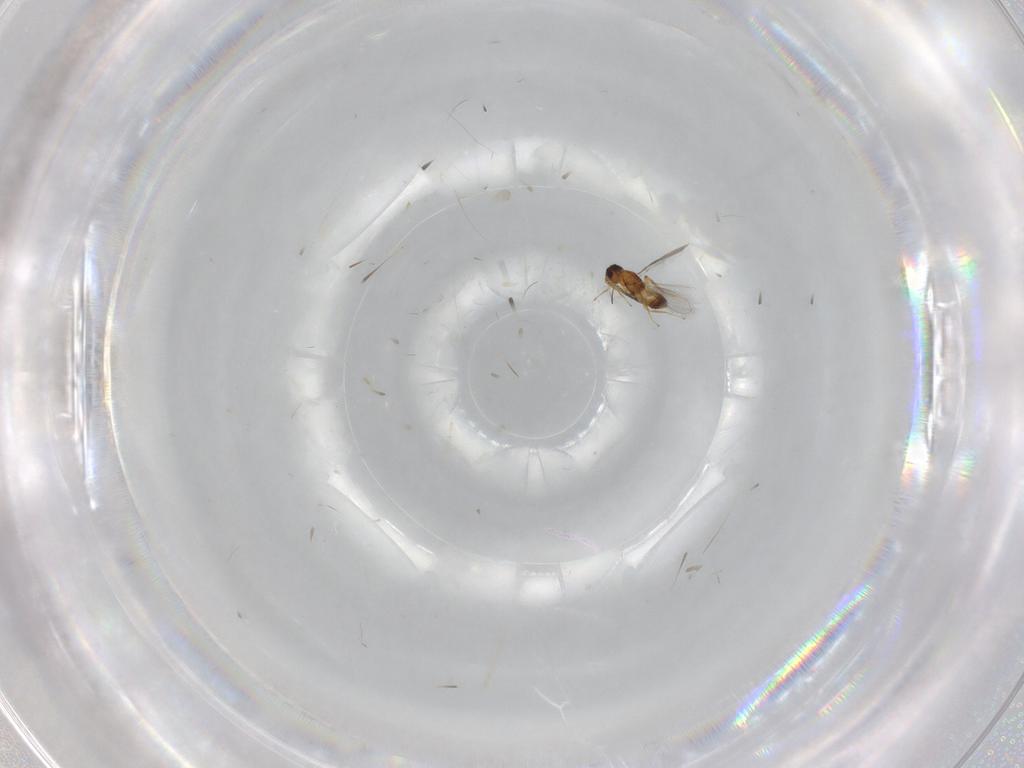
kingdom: Animalia
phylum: Arthropoda
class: Insecta
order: Hymenoptera
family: Mymaridae
